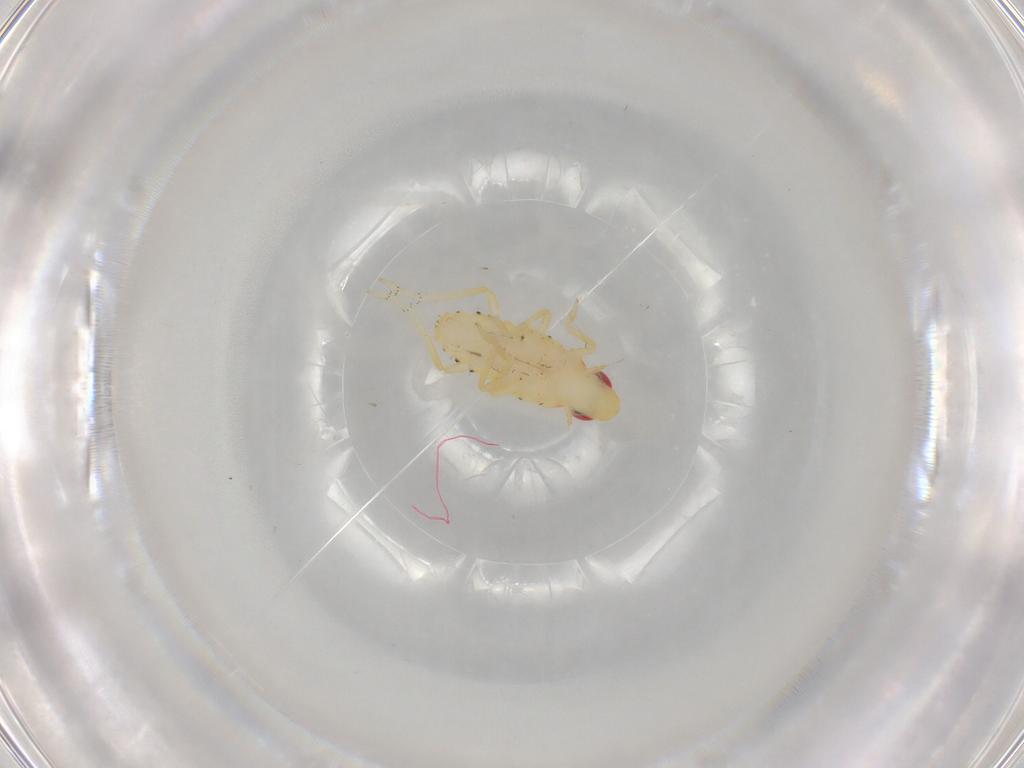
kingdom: Animalia
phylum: Arthropoda
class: Insecta
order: Hemiptera
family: Tropiduchidae
